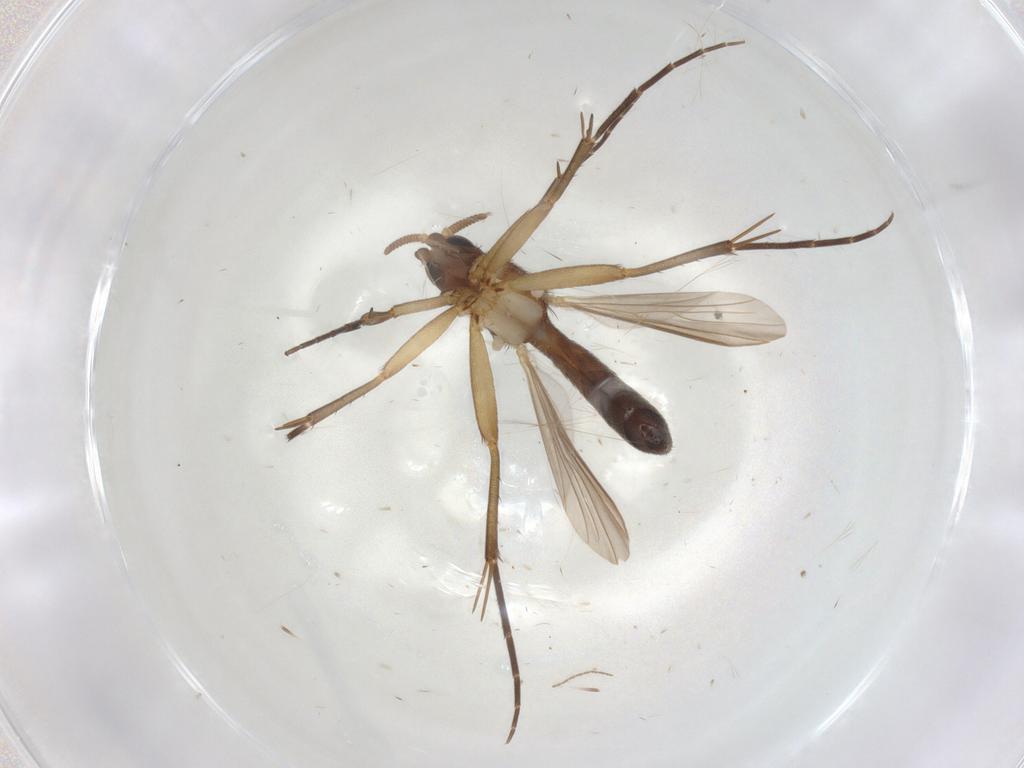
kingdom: Animalia
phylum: Arthropoda
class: Insecta
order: Diptera
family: Mycetophilidae
